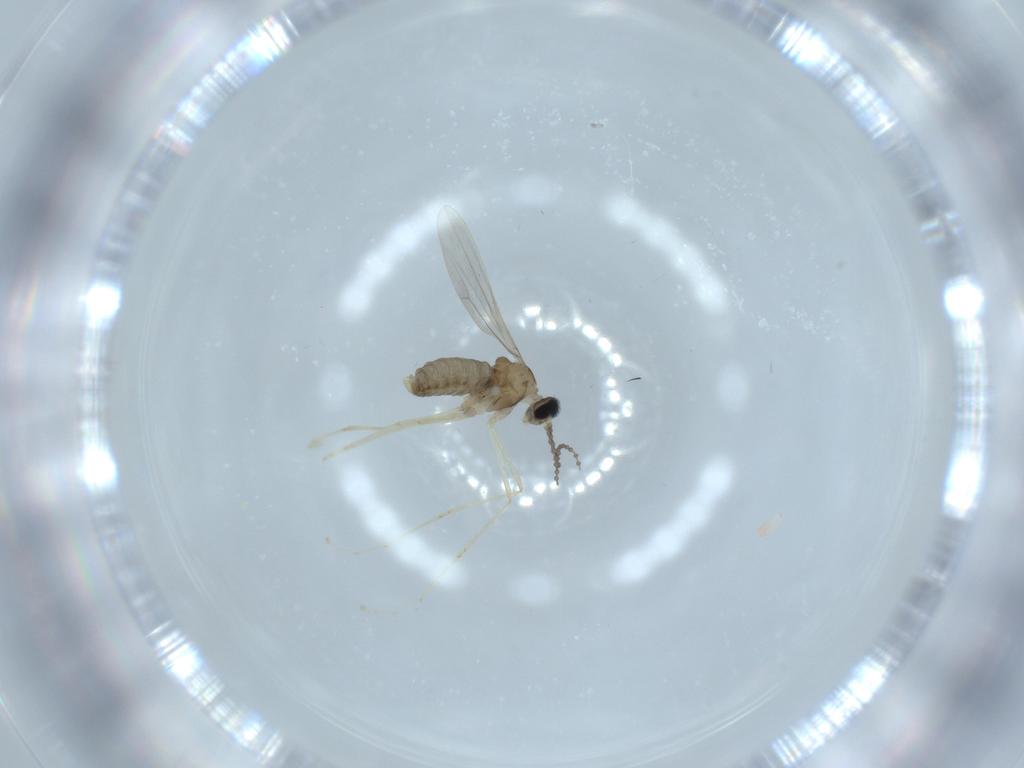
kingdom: Animalia
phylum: Arthropoda
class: Insecta
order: Diptera
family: Cecidomyiidae
